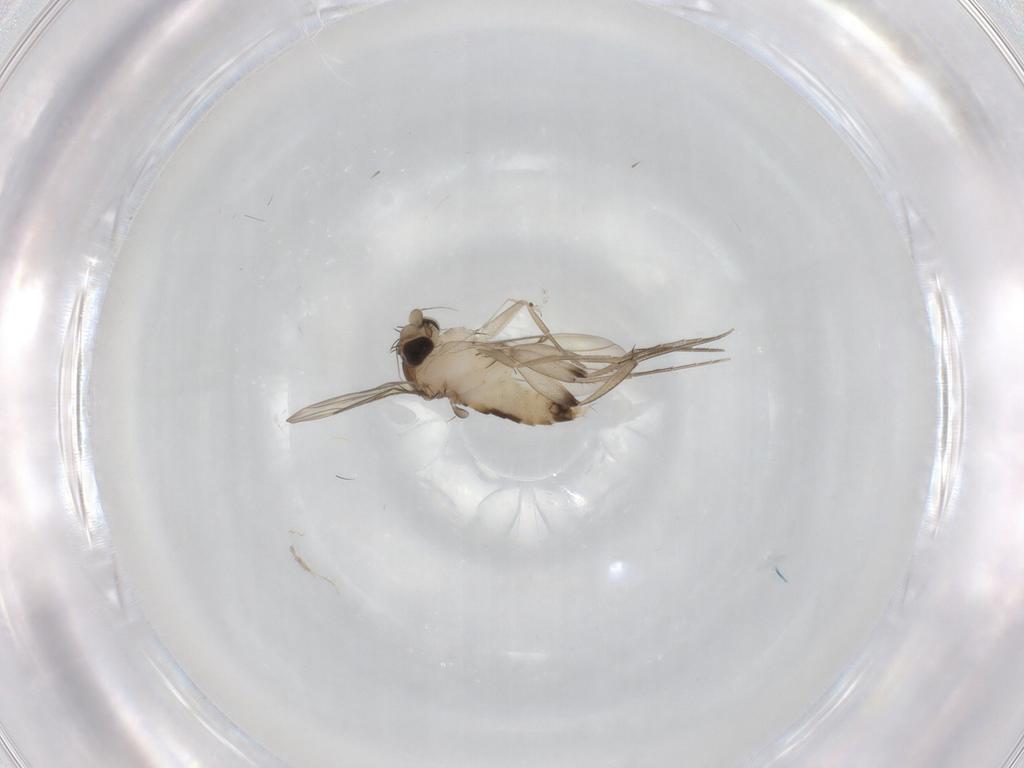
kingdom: Animalia
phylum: Arthropoda
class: Insecta
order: Diptera
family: Phoridae
